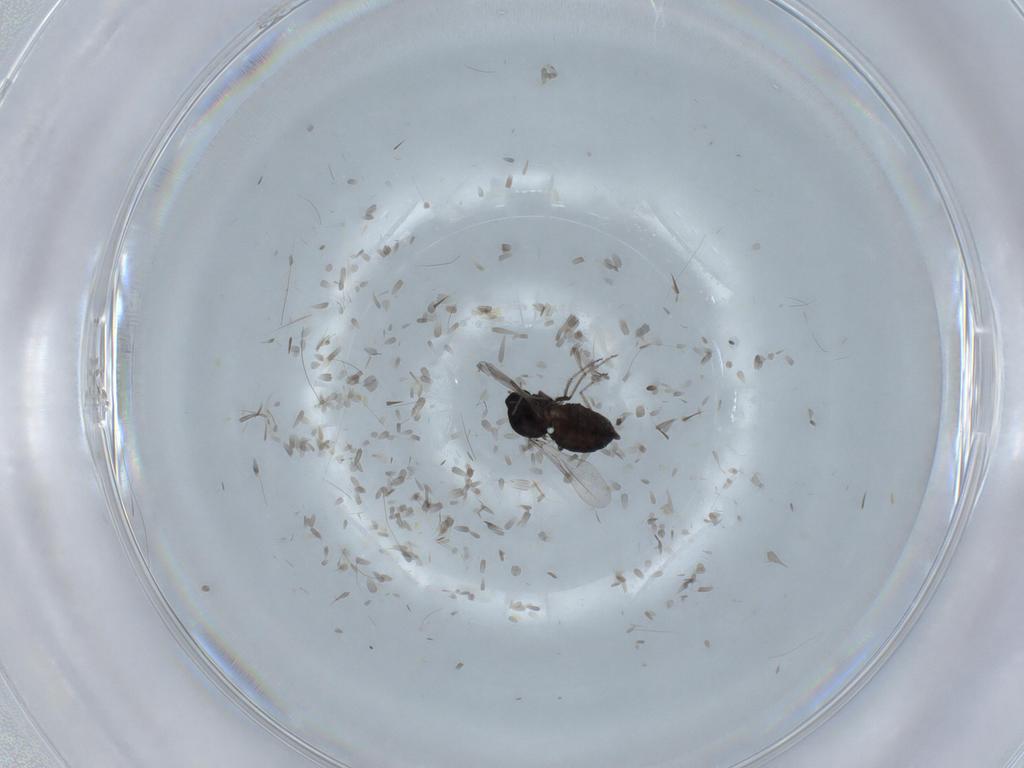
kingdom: Animalia
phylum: Arthropoda
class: Insecta
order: Diptera
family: Ceratopogonidae
